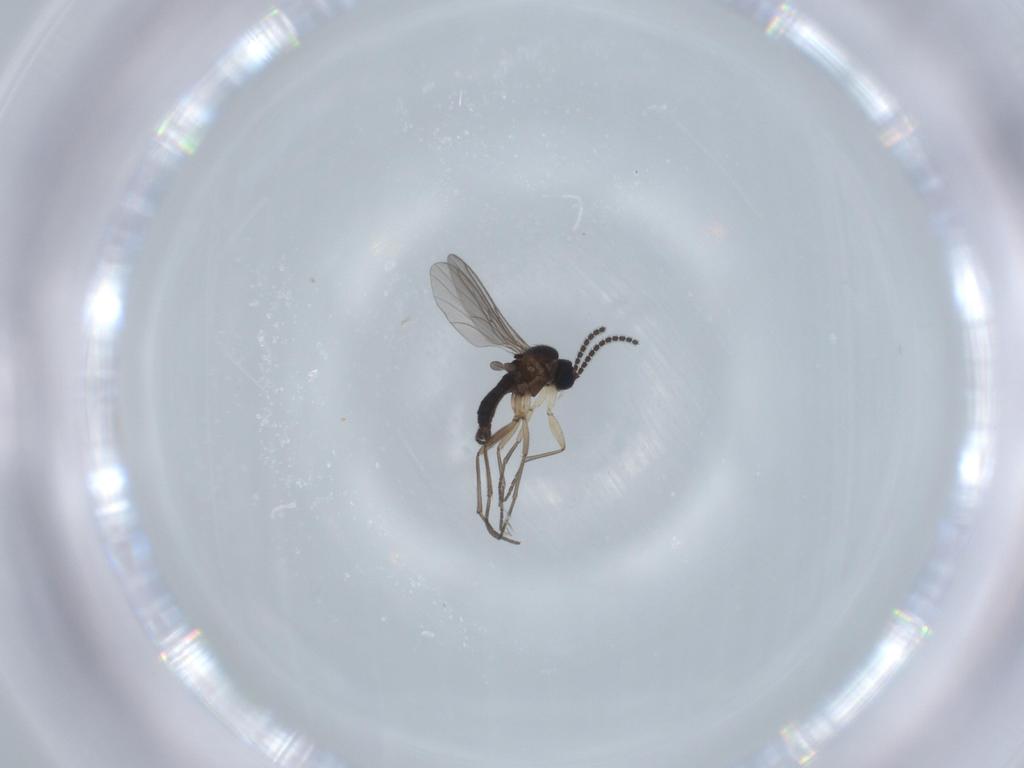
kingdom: Animalia
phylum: Arthropoda
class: Insecta
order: Diptera
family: Sciaridae
